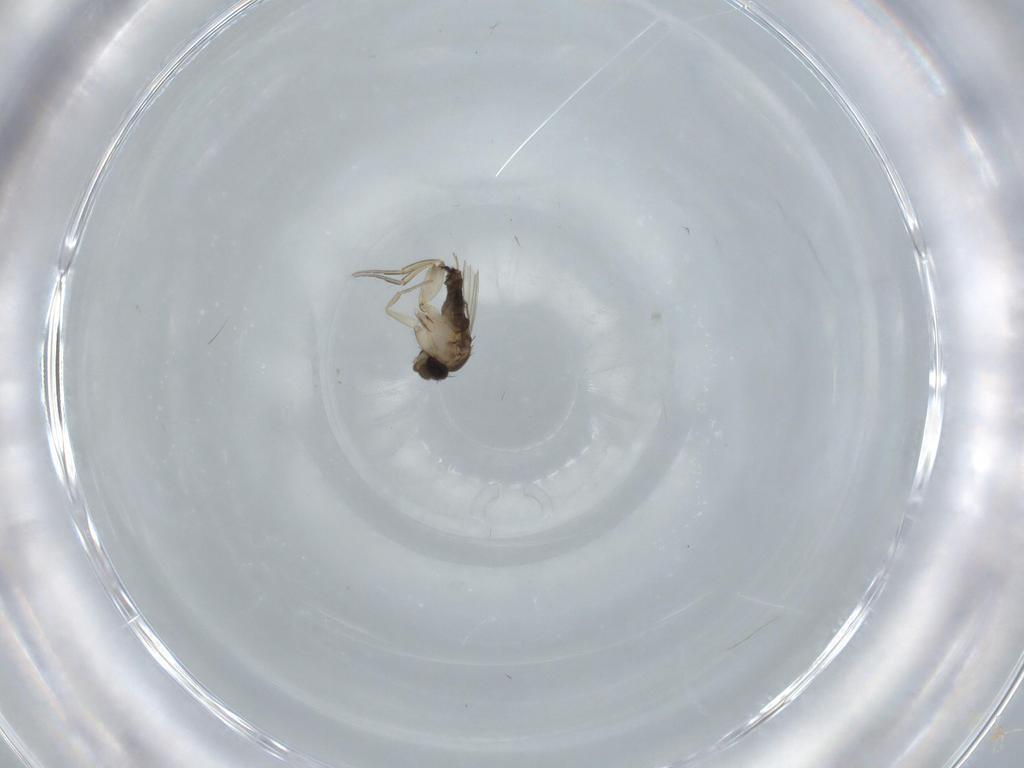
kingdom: Animalia
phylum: Arthropoda
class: Insecta
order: Diptera
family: Phoridae
